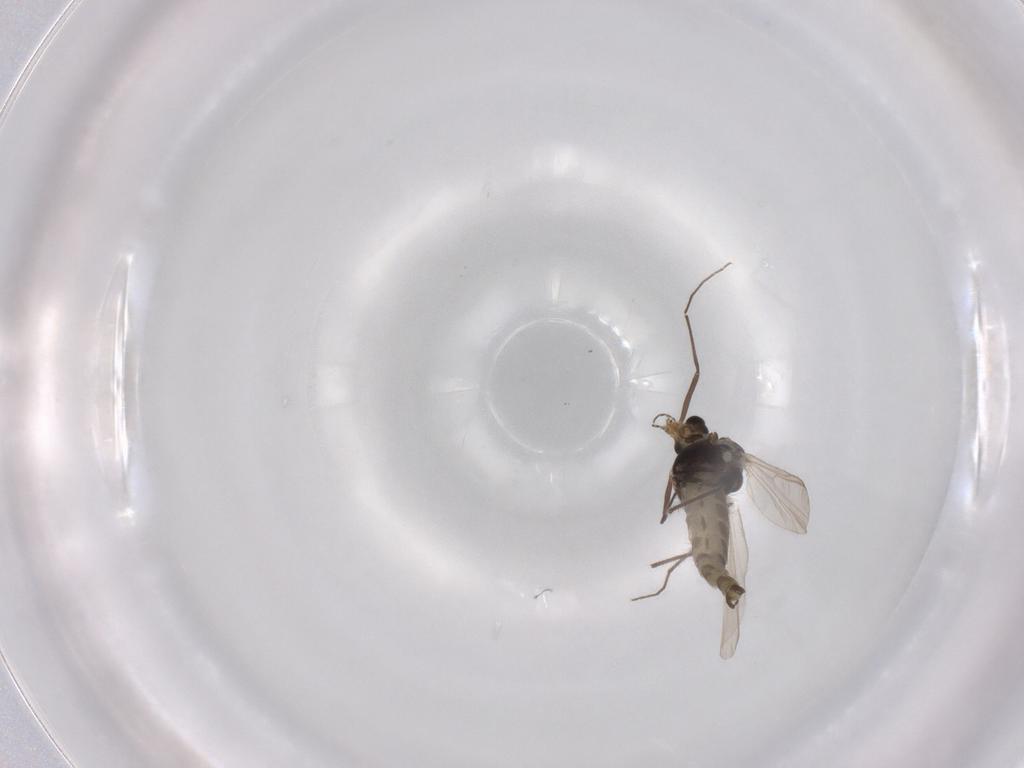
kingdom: Animalia
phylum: Arthropoda
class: Insecta
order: Diptera
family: Chironomidae
